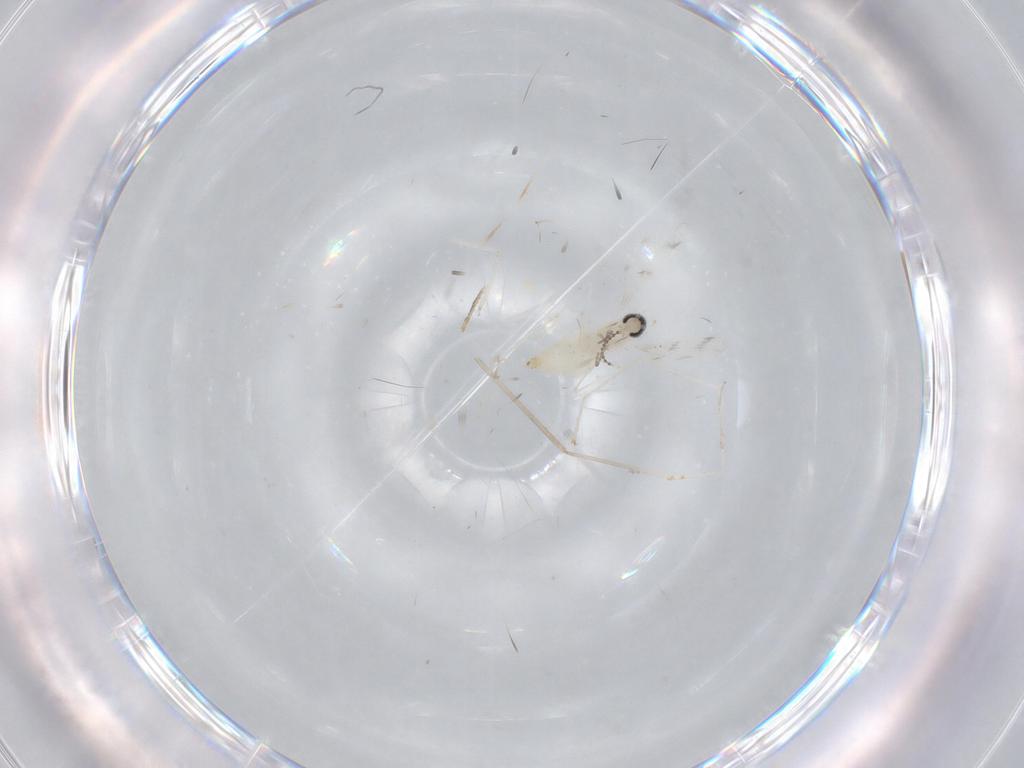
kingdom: Animalia
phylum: Arthropoda
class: Insecta
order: Diptera
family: Cecidomyiidae
